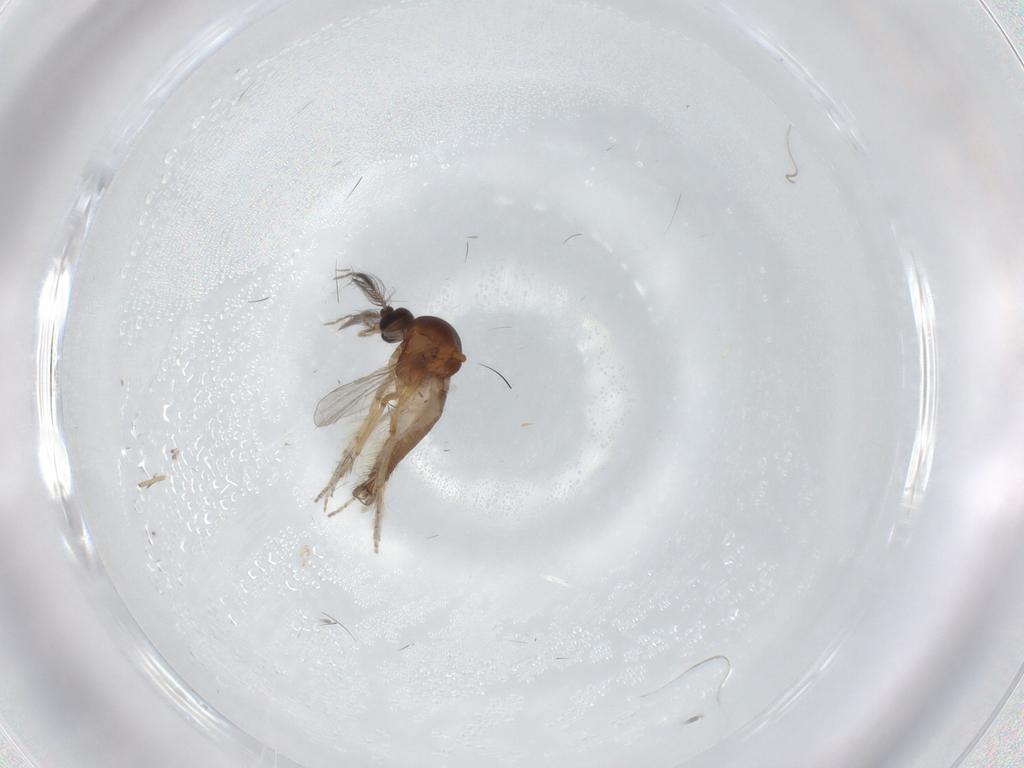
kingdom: Animalia
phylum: Arthropoda
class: Insecta
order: Diptera
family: Ceratopogonidae
